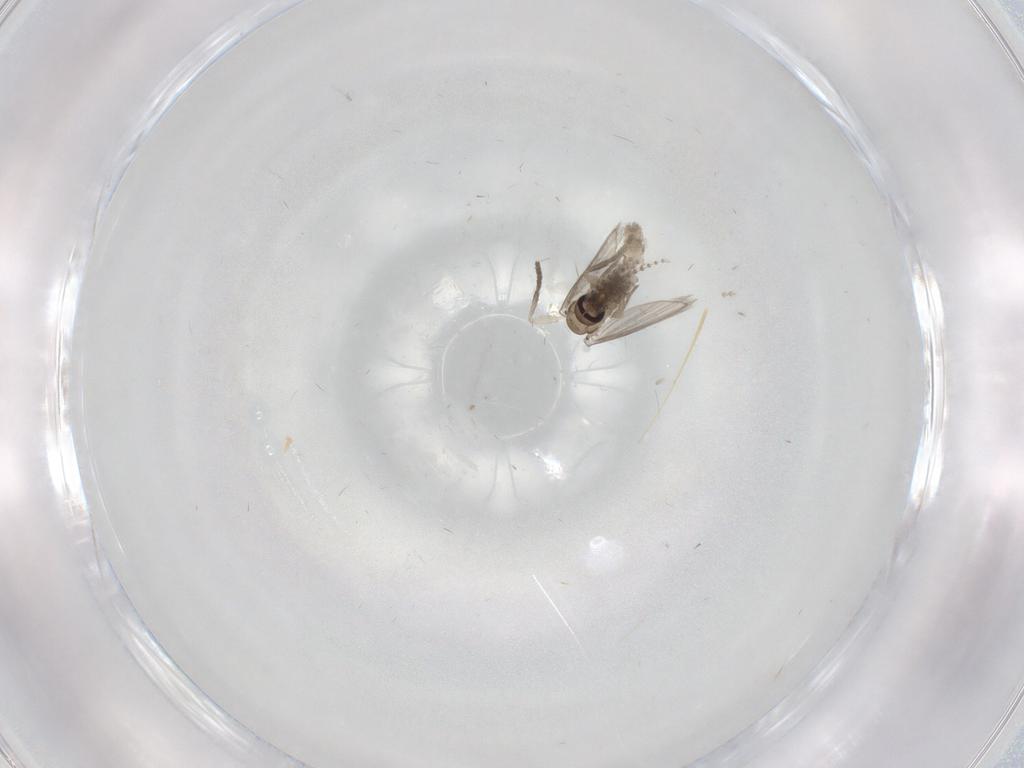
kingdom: Animalia
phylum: Arthropoda
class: Insecta
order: Diptera
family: Psychodidae
